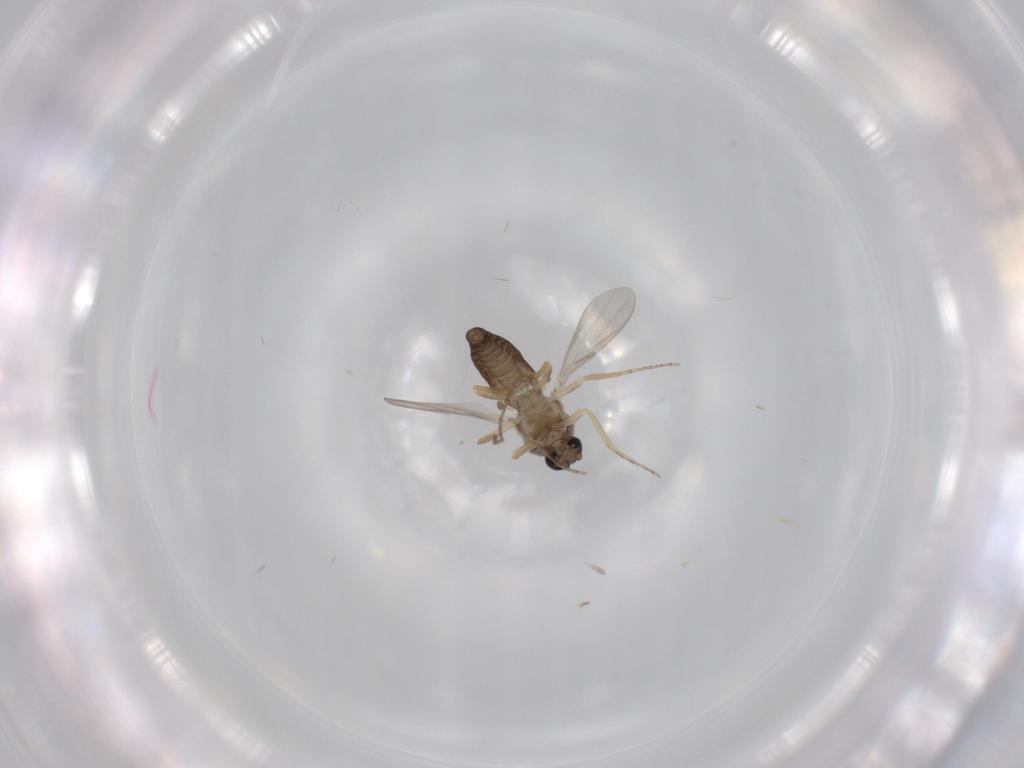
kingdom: Animalia
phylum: Arthropoda
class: Insecta
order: Diptera
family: Ceratopogonidae
